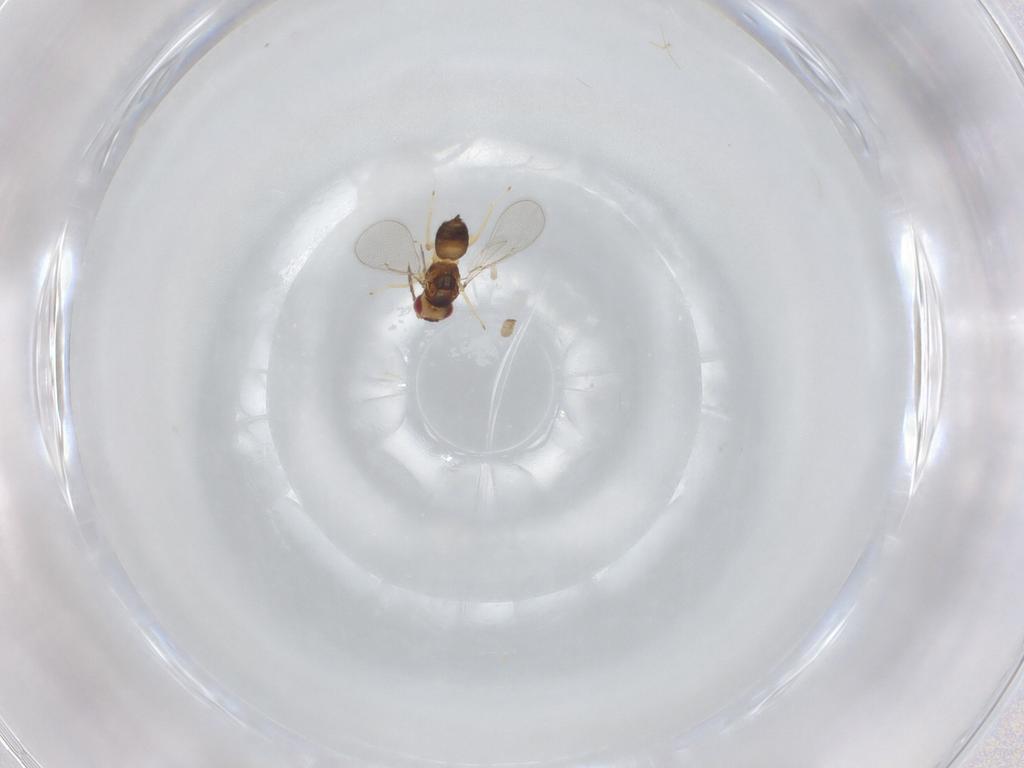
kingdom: Animalia
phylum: Arthropoda
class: Insecta
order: Hymenoptera
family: Eulophidae
